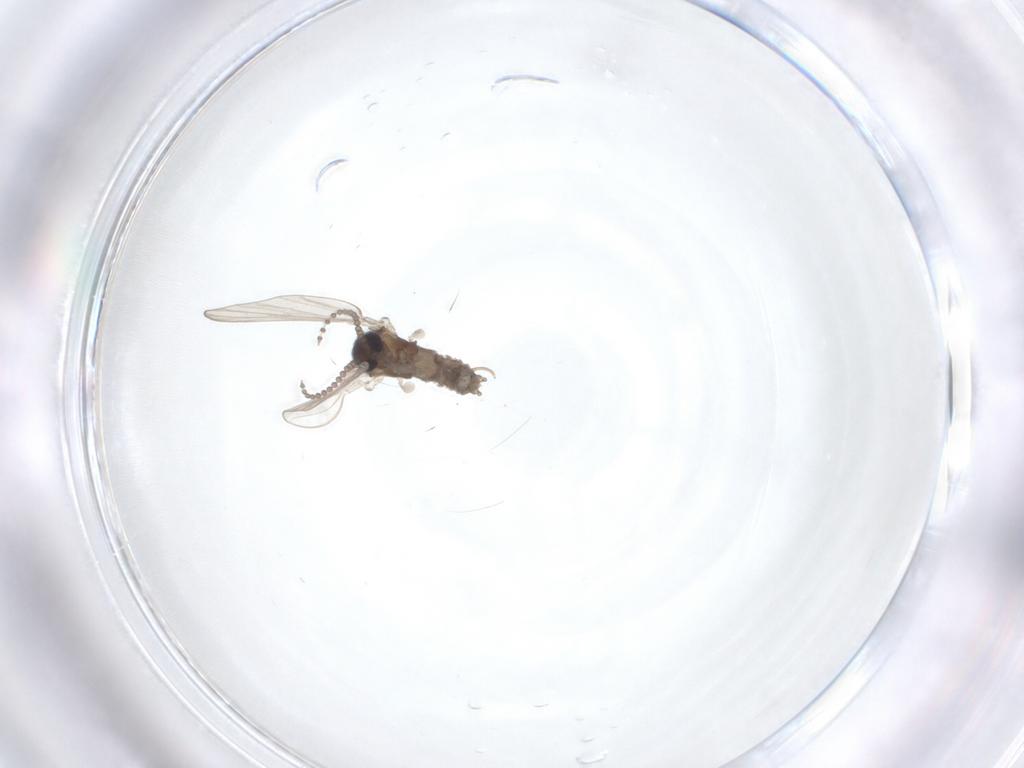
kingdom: Animalia
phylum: Arthropoda
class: Insecta
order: Diptera
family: Psychodidae
